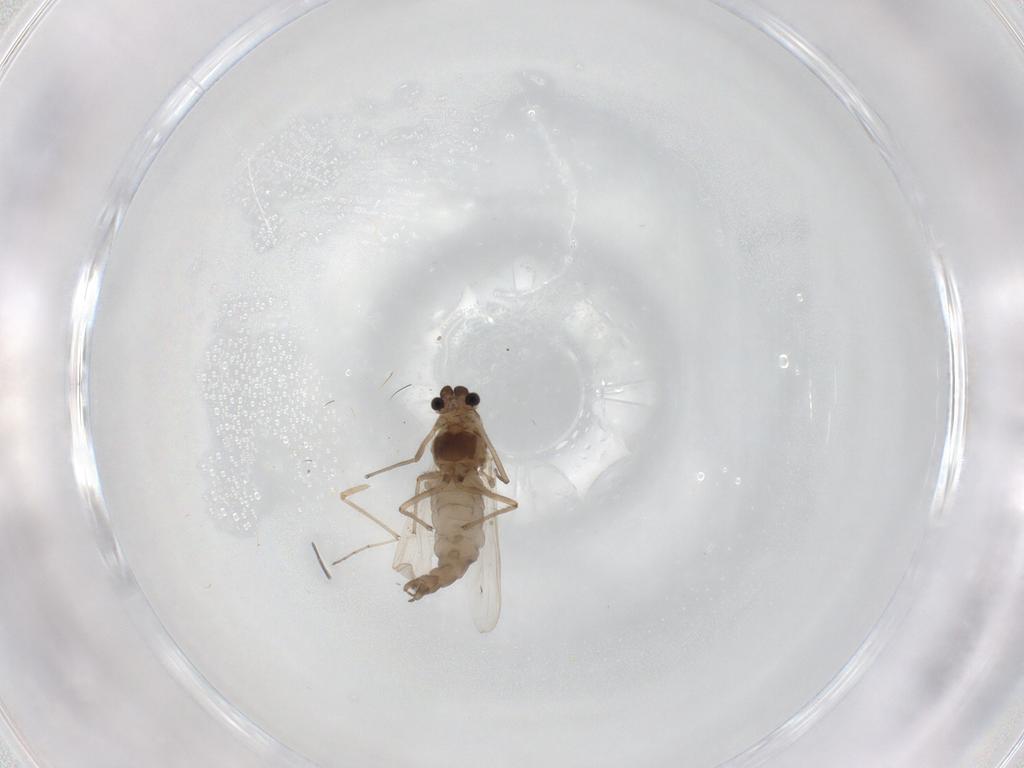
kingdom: Animalia
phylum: Arthropoda
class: Insecta
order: Diptera
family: Chironomidae
